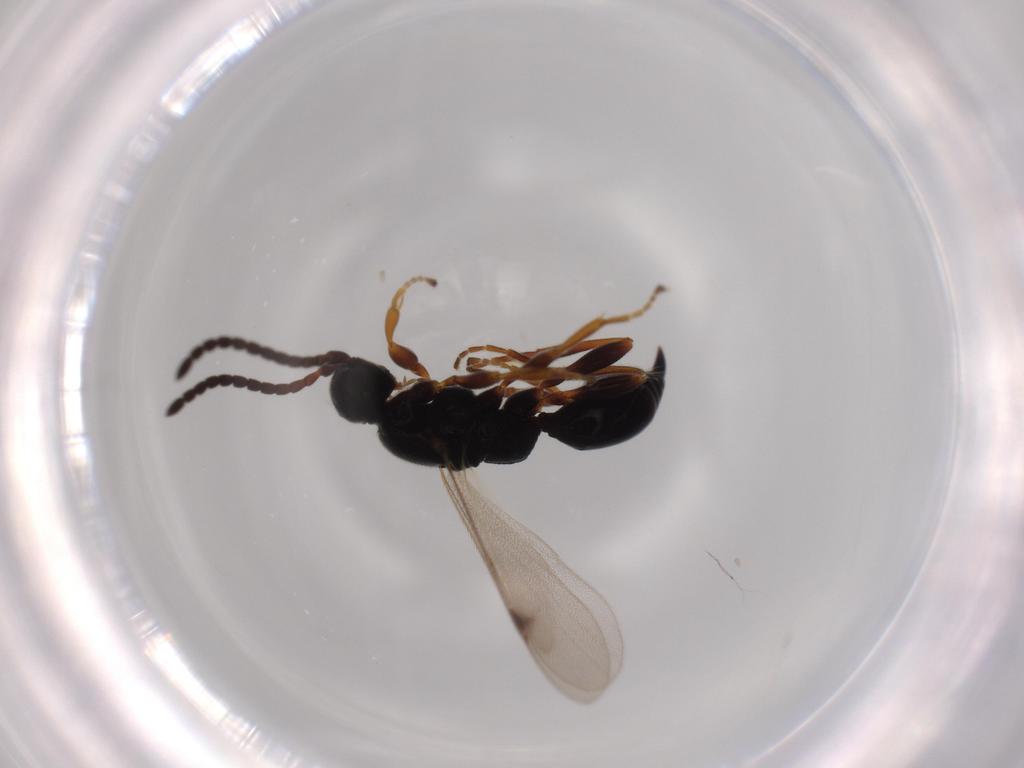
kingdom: Animalia
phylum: Arthropoda
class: Insecta
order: Hymenoptera
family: Proctotrupidae
